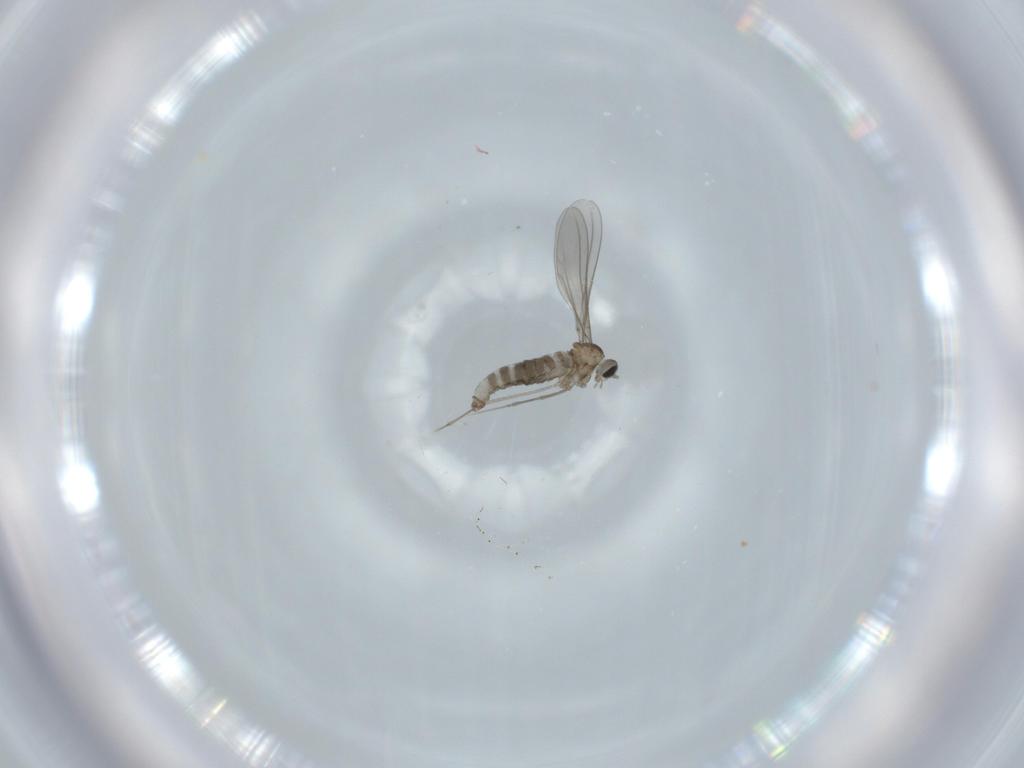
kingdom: Animalia
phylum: Arthropoda
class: Insecta
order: Diptera
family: Cecidomyiidae
